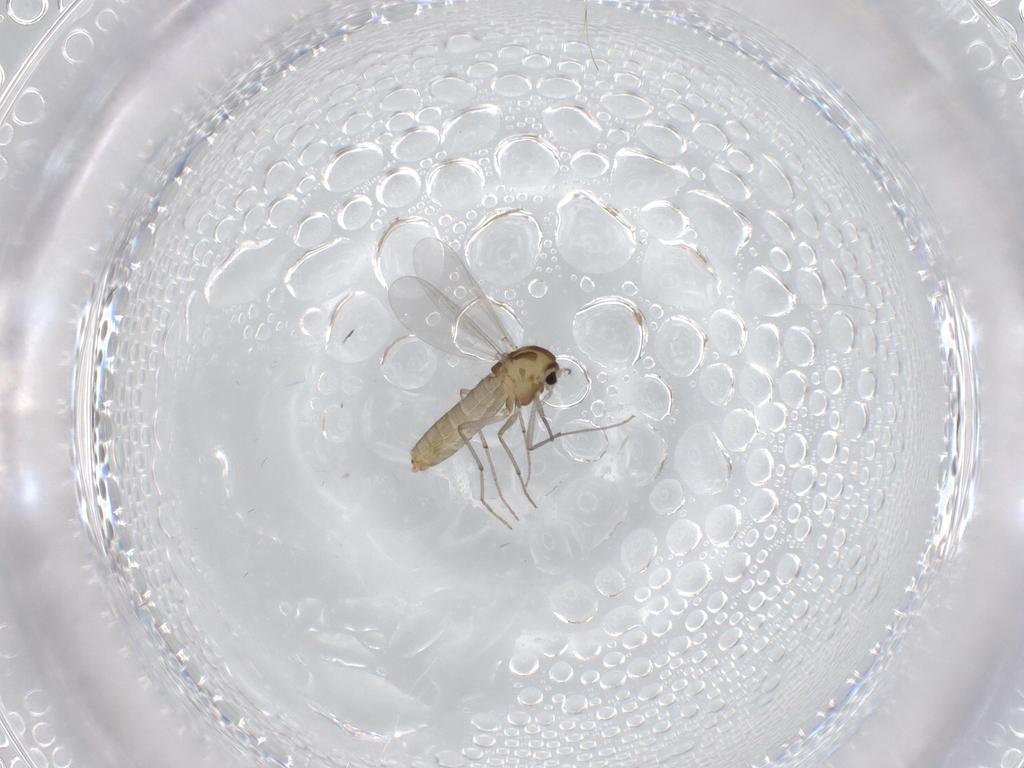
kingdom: Animalia
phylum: Arthropoda
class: Insecta
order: Diptera
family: Chironomidae
